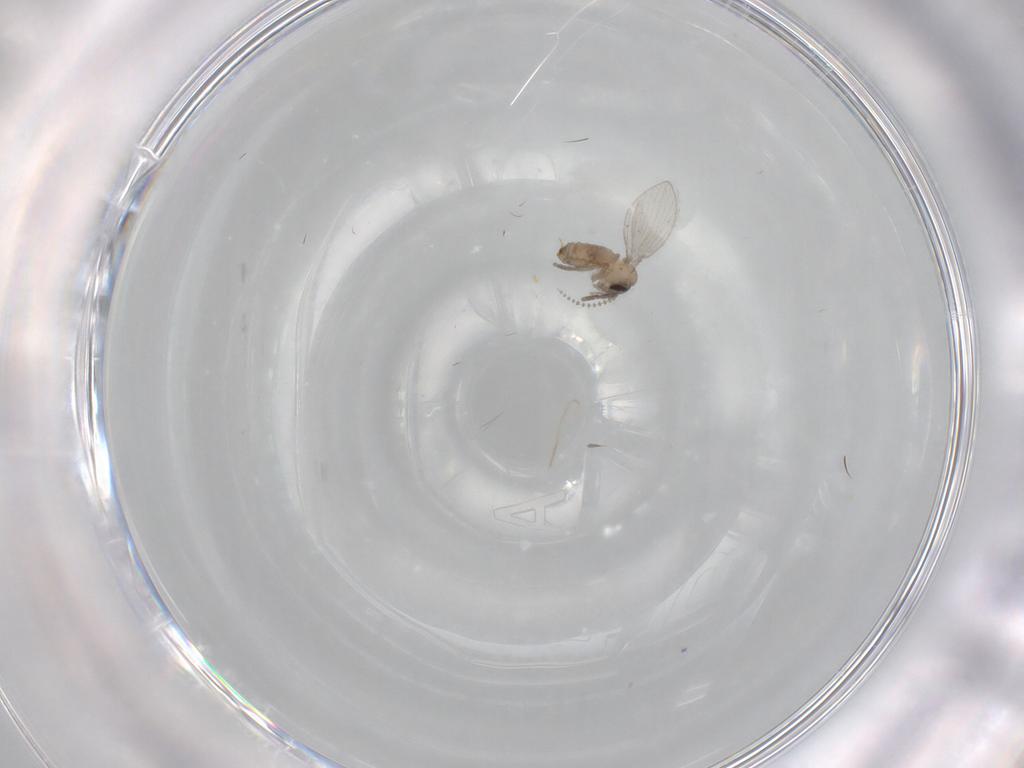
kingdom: Animalia
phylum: Arthropoda
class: Insecta
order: Diptera
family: Psychodidae
